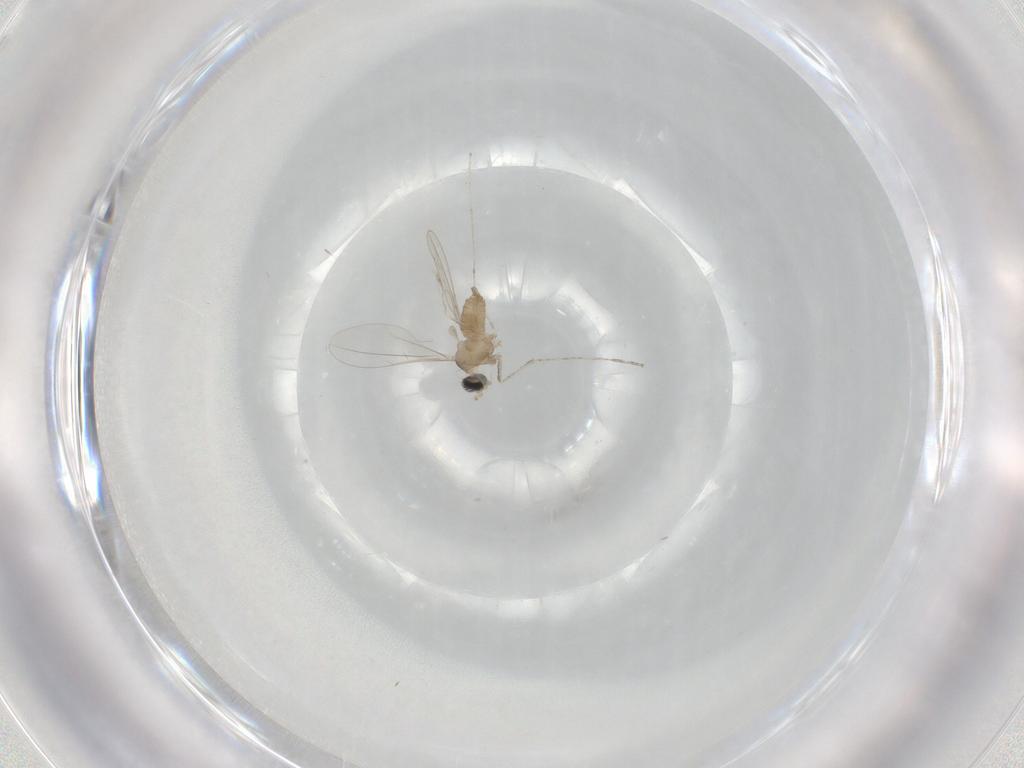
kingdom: Animalia
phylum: Arthropoda
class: Insecta
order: Diptera
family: Cecidomyiidae
